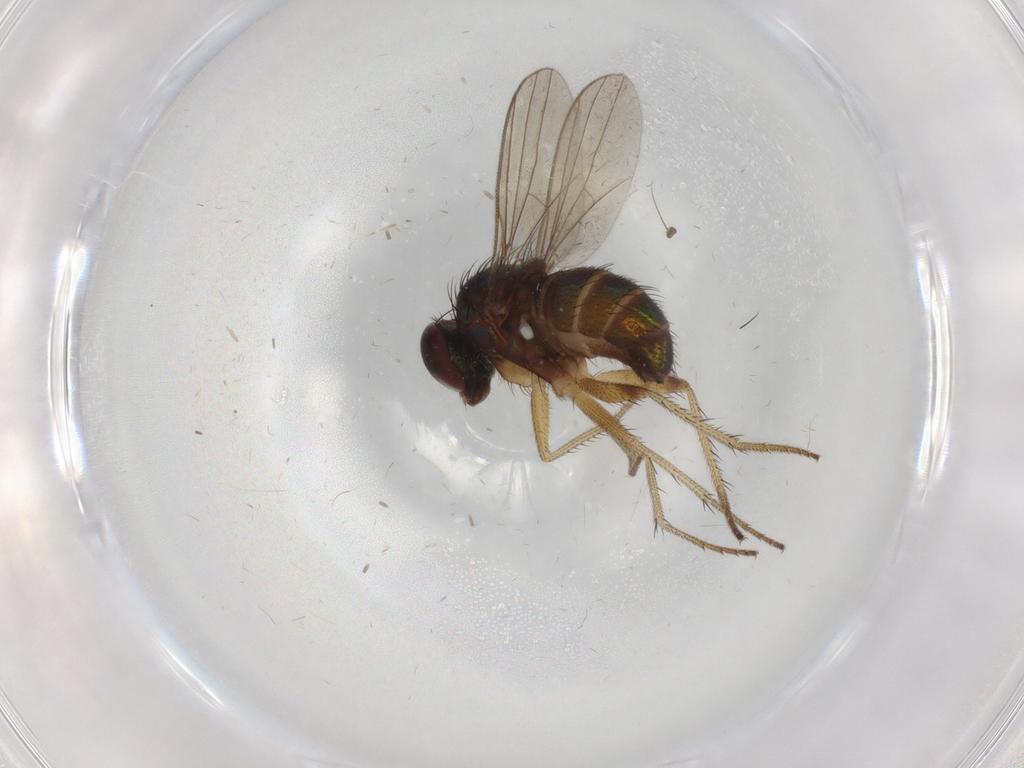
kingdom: Animalia
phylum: Arthropoda
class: Insecta
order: Diptera
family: Dolichopodidae
